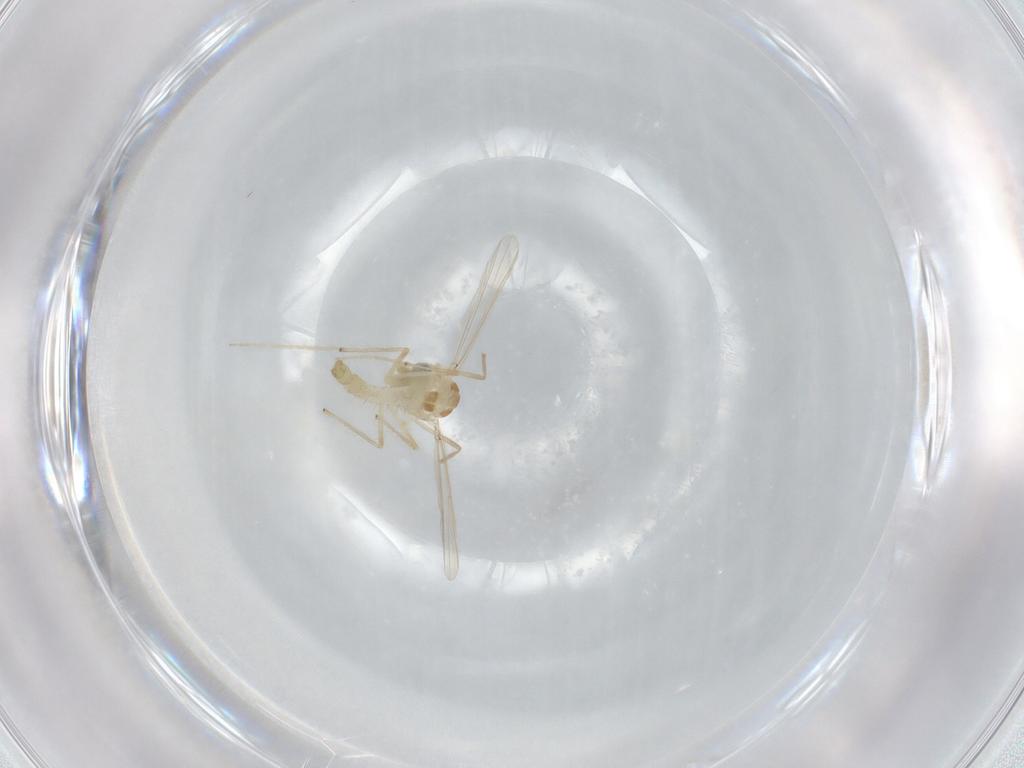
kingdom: Animalia
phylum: Arthropoda
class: Insecta
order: Diptera
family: Chironomidae
